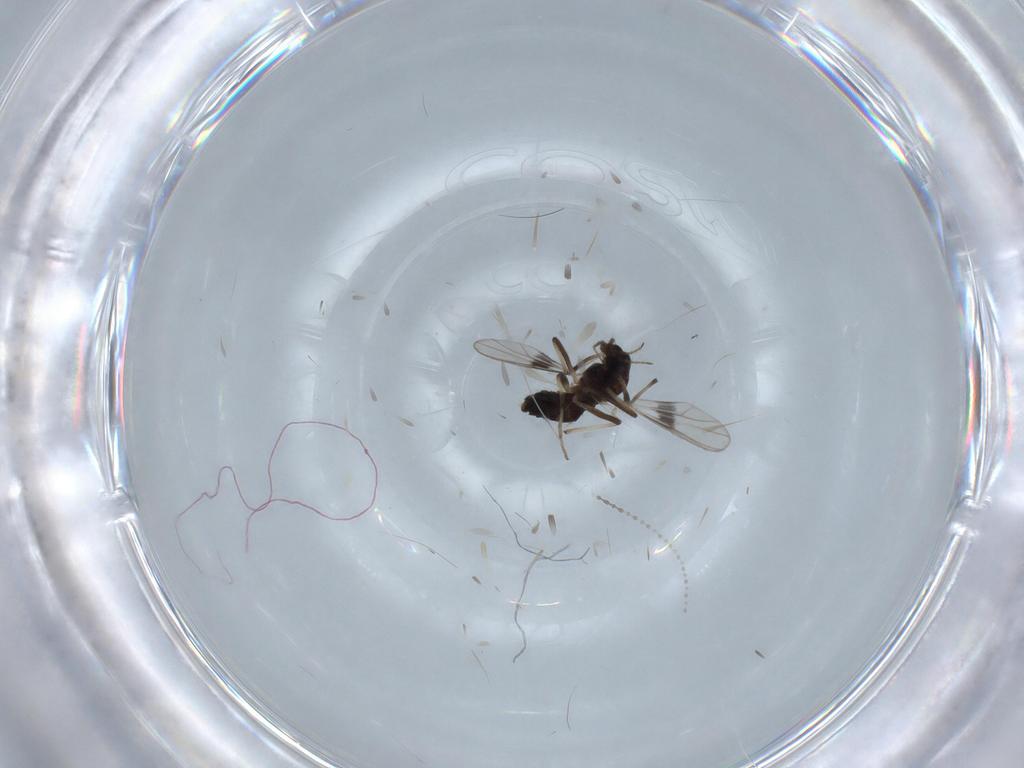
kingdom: Animalia
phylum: Arthropoda
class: Insecta
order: Diptera
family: Chironomidae
